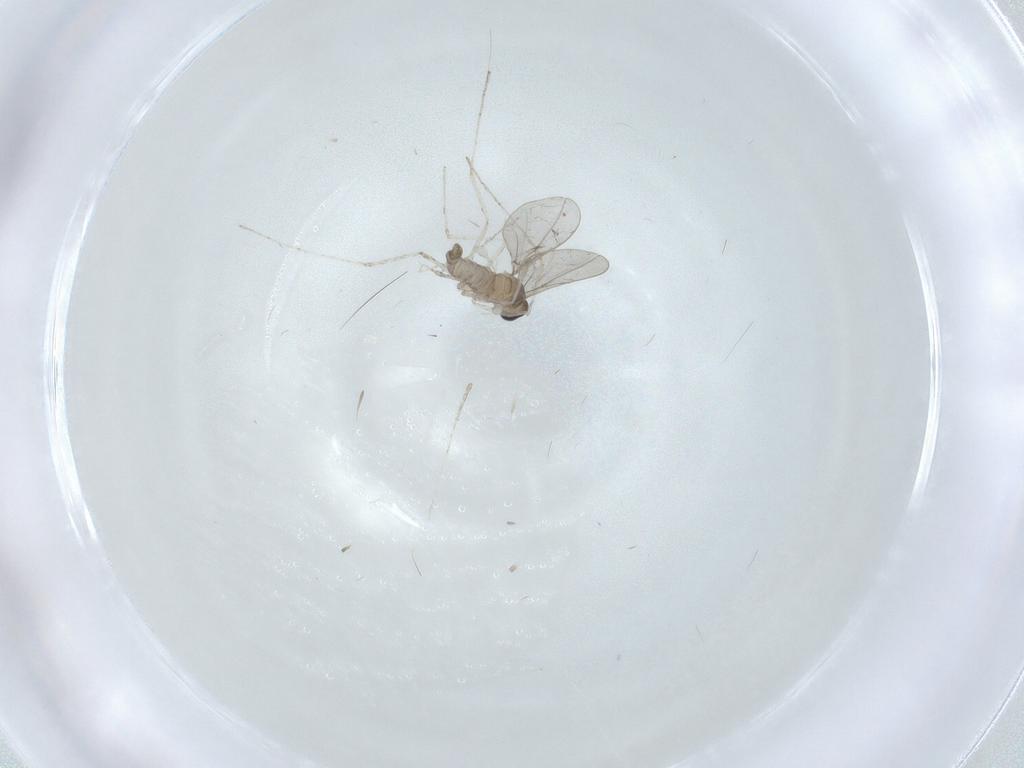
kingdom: Animalia
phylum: Arthropoda
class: Insecta
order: Diptera
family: Cecidomyiidae
